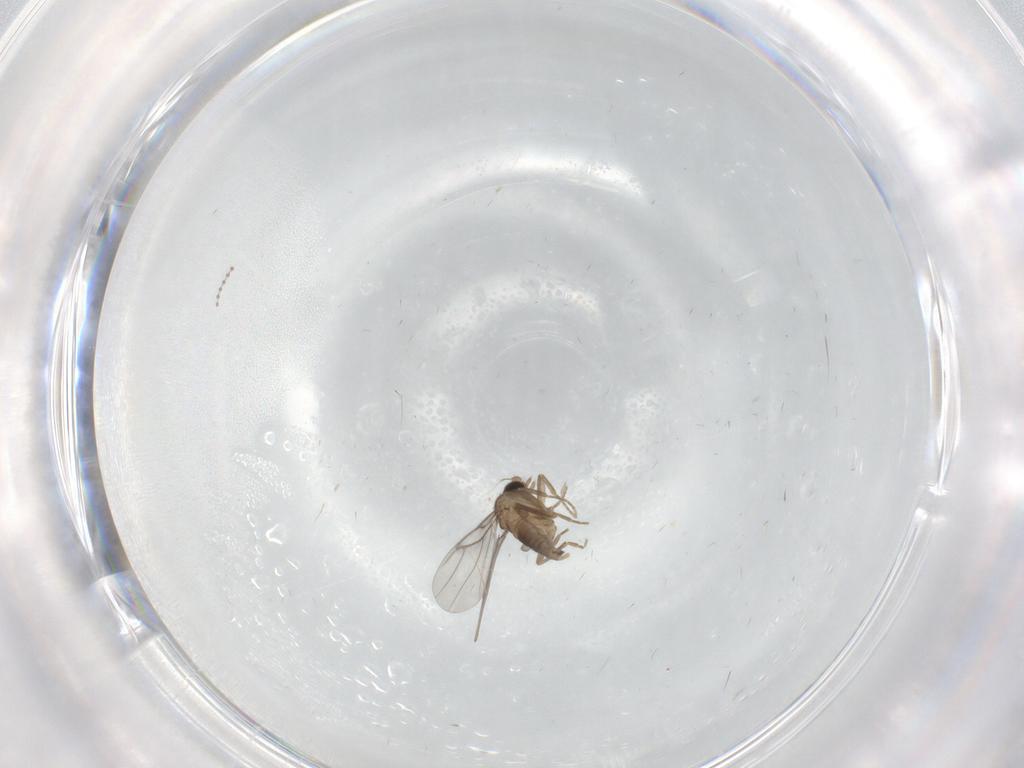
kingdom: Animalia
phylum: Arthropoda
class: Insecta
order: Diptera
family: Cecidomyiidae
